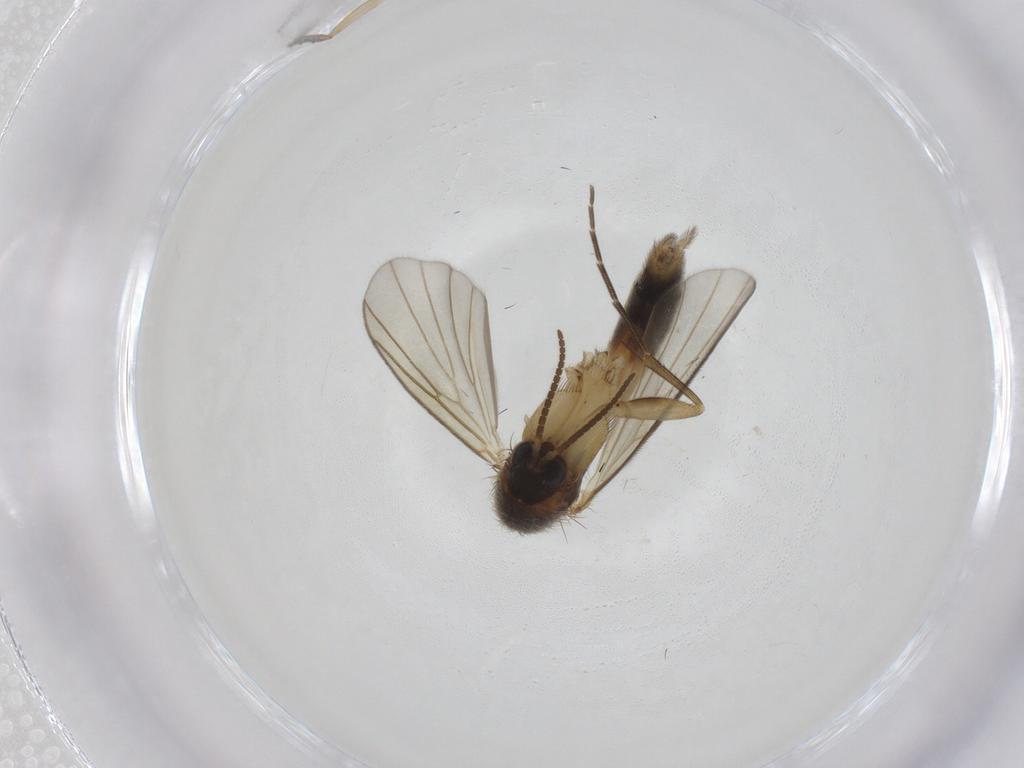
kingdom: Animalia
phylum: Arthropoda
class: Insecta
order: Diptera
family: Mycetophilidae
